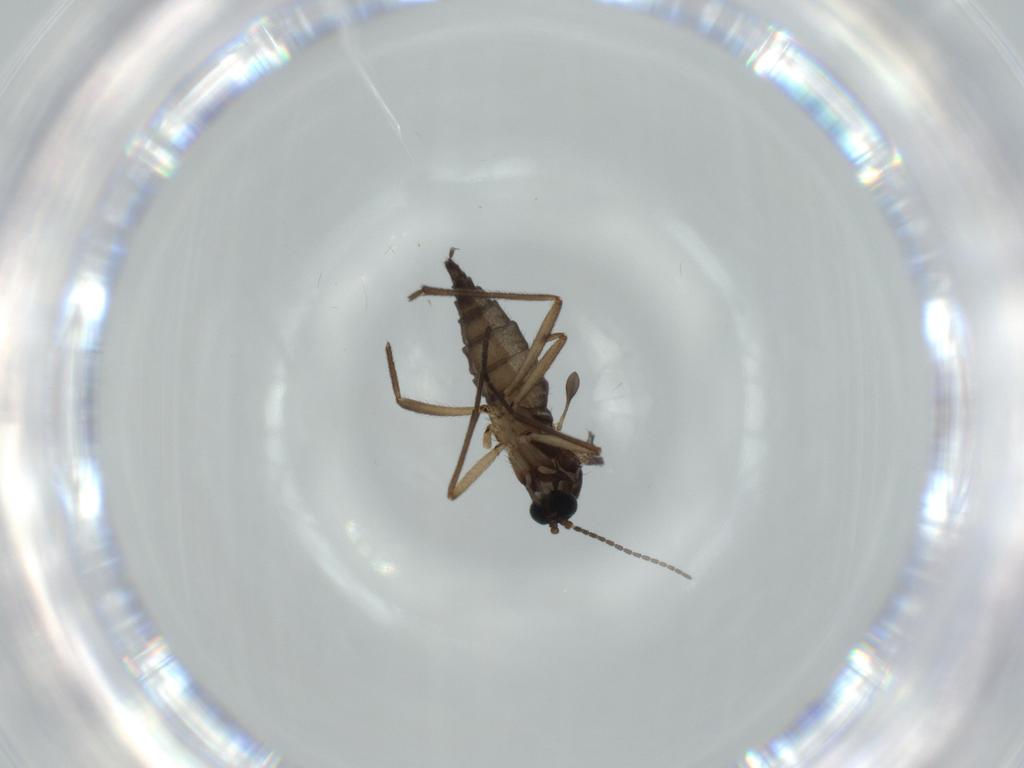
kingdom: Animalia
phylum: Arthropoda
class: Insecta
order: Diptera
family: Sciaridae
